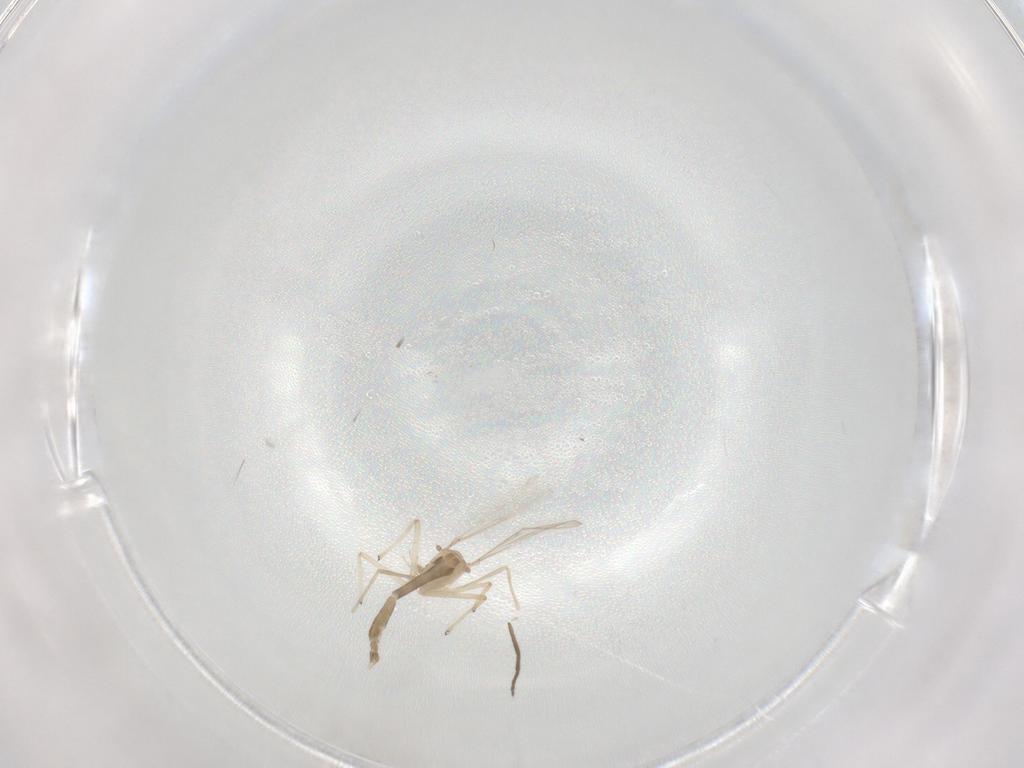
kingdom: Animalia
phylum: Arthropoda
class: Insecta
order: Diptera
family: Chironomidae
